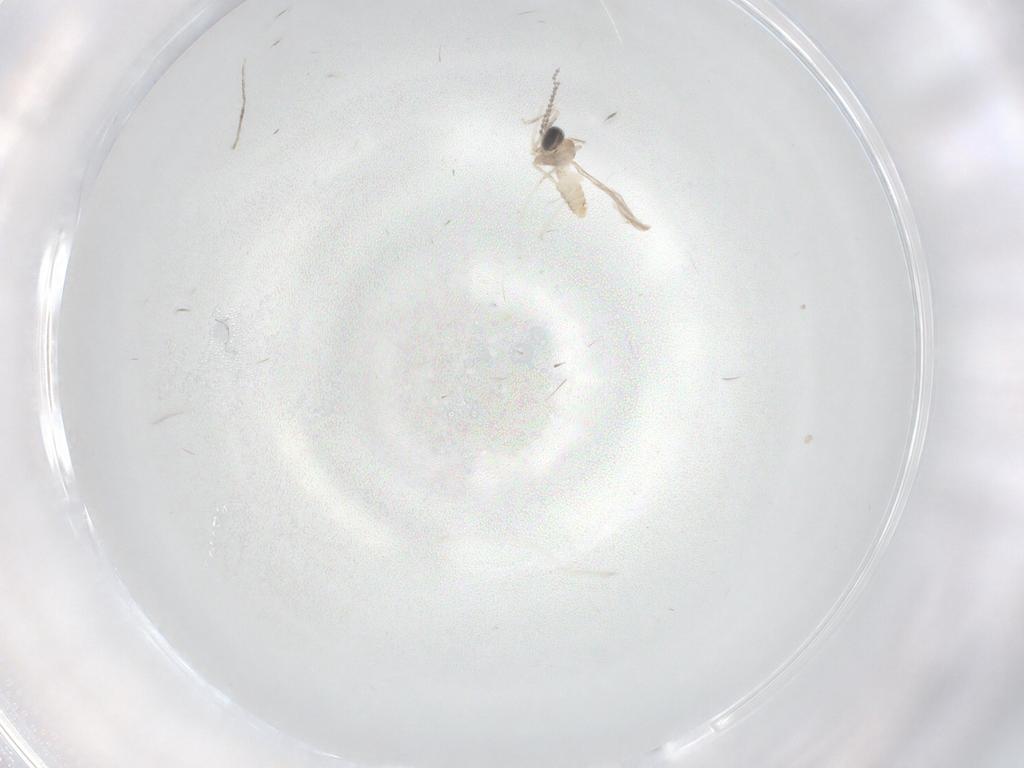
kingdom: Animalia
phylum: Arthropoda
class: Insecta
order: Diptera
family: Cecidomyiidae
